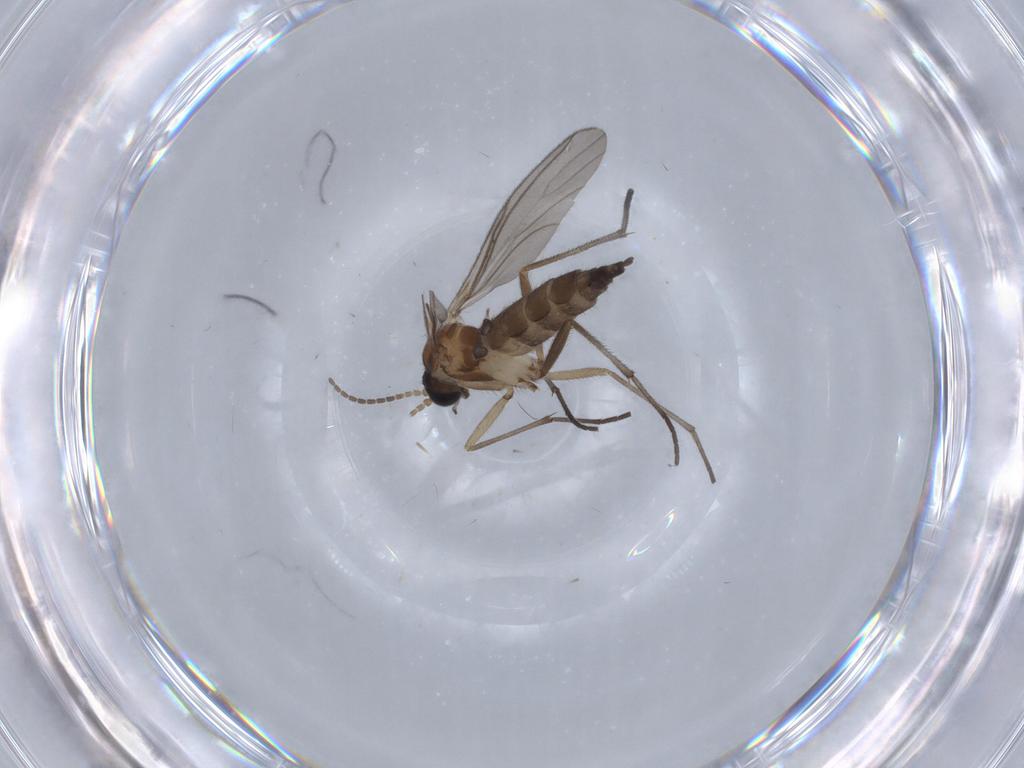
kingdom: Animalia
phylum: Arthropoda
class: Insecta
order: Diptera
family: Sciaridae
